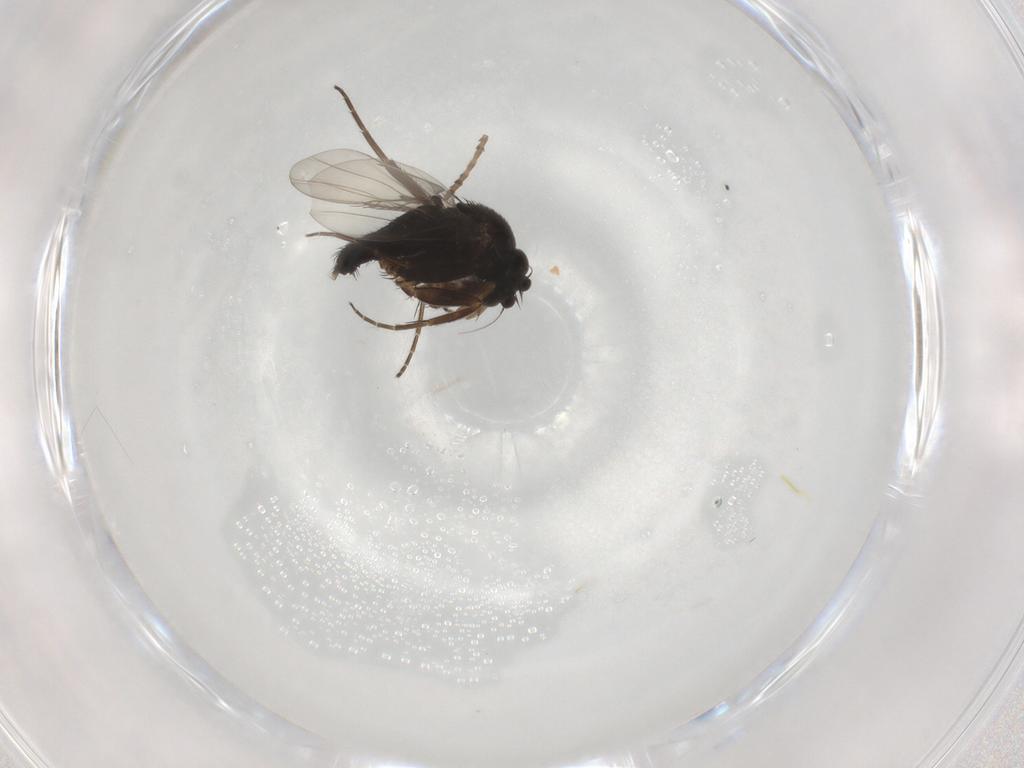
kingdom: Animalia
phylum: Arthropoda
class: Insecta
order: Diptera
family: Phoridae
